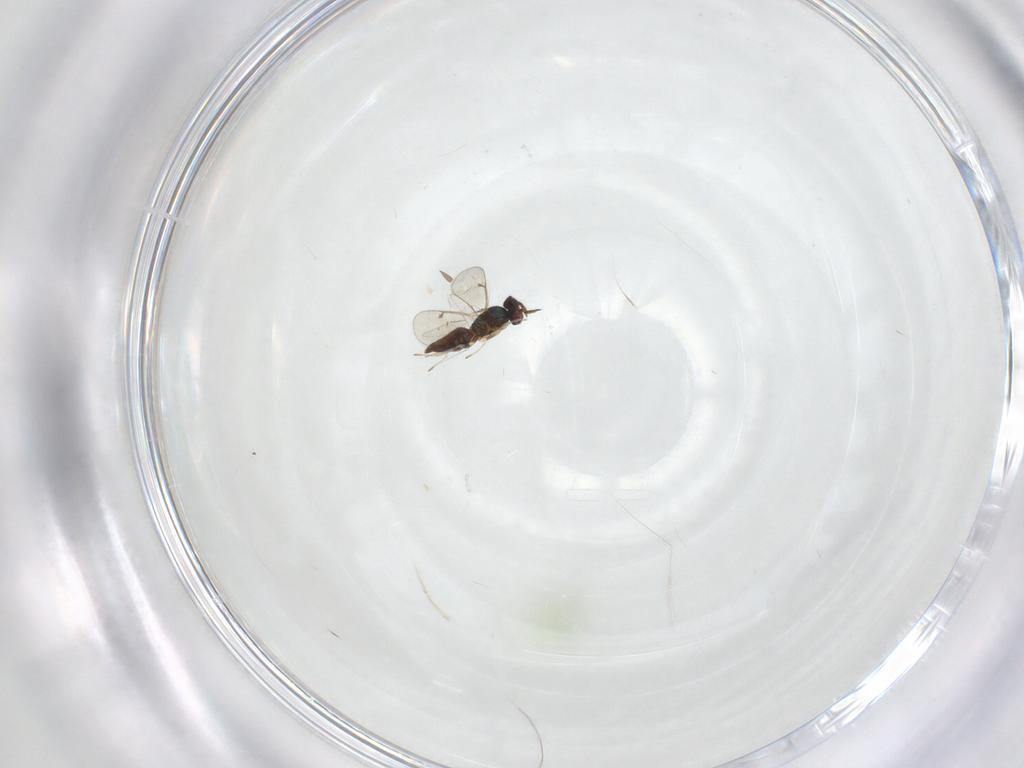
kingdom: Animalia
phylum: Arthropoda
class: Insecta
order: Hymenoptera
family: Eulophidae
